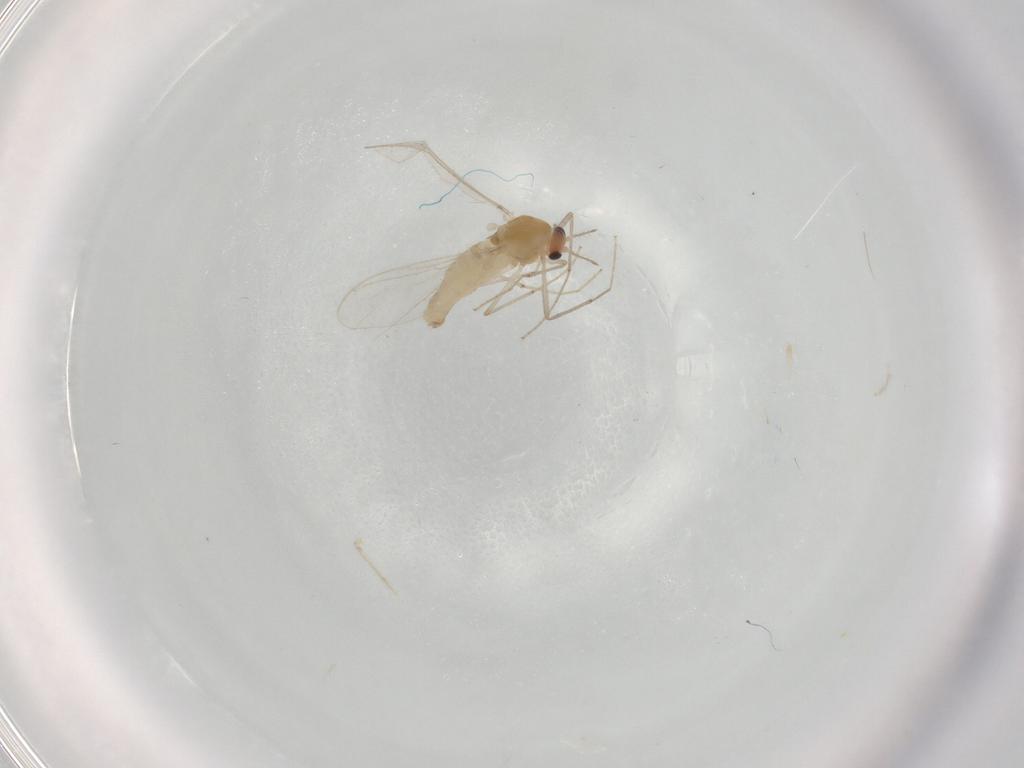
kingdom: Animalia
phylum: Arthropoda
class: Insecta
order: Diptera
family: Chironomidae
